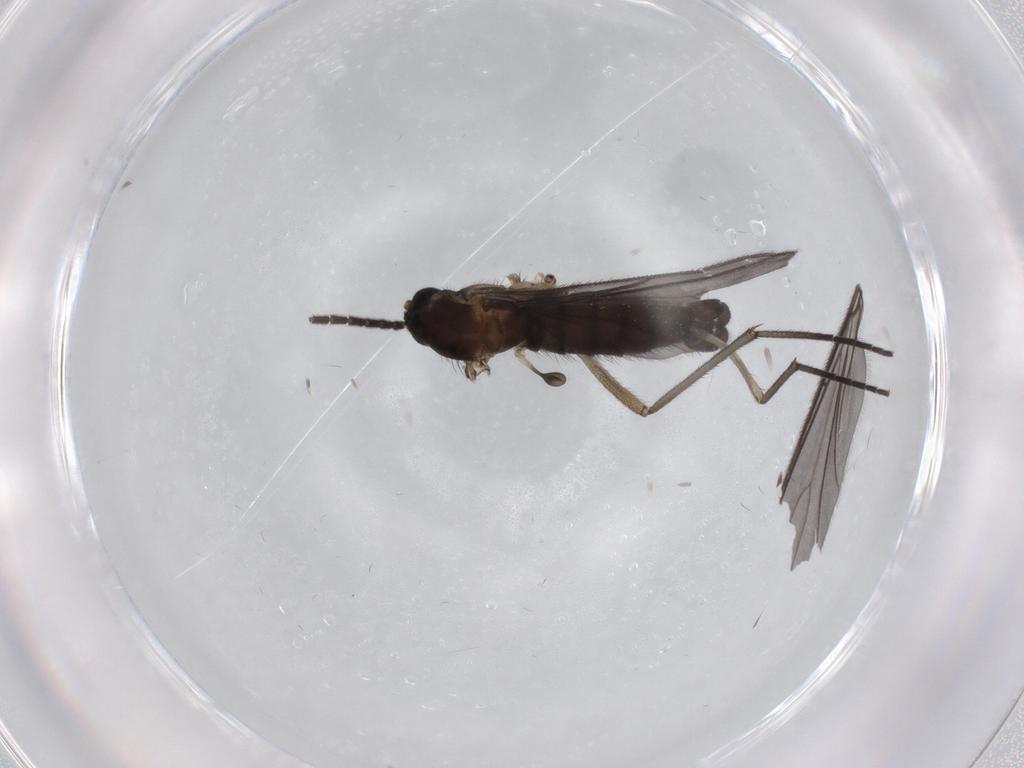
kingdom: Animalia
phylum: Arthropoda
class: Insecta
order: Diptera
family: Sciaridae
